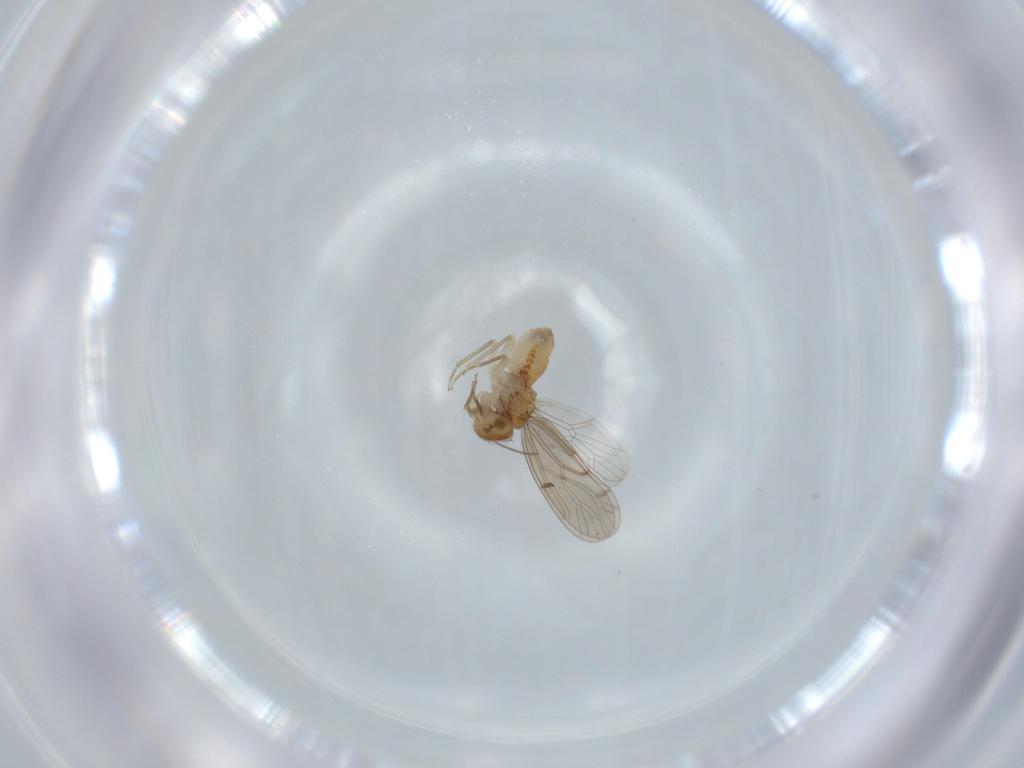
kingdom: Animalia
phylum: Arthropoda
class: Insecta
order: Psocodea
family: Ectopsocidae
